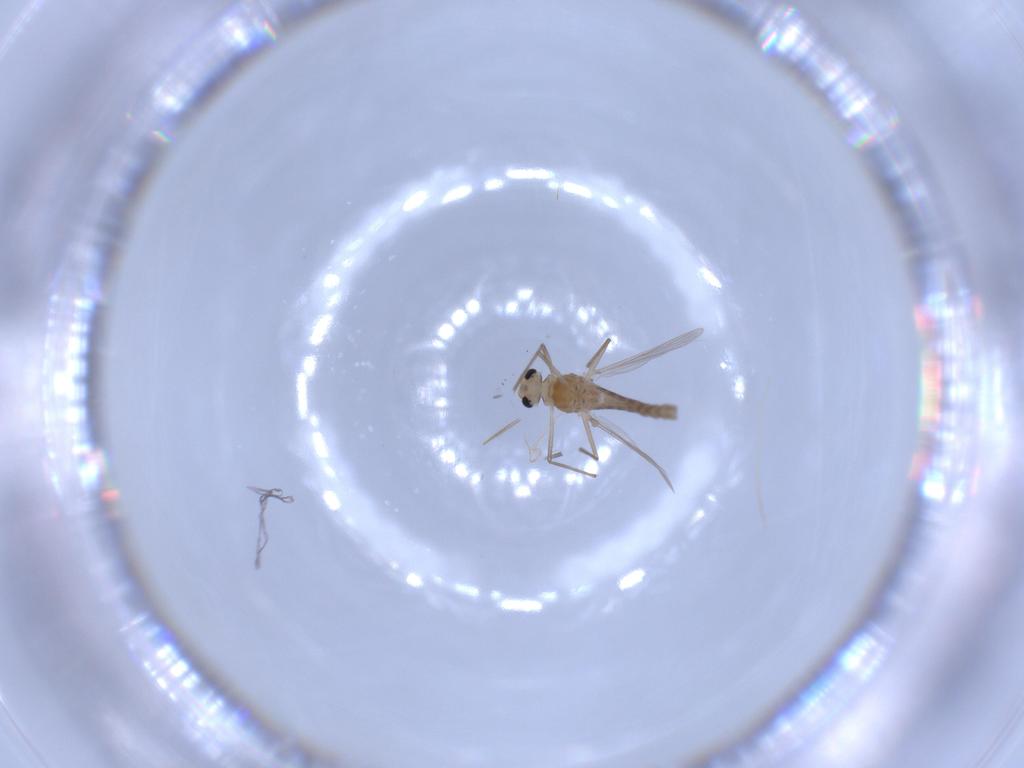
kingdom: Animalia
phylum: Arthropoda
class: Insecta
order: Diptera
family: Chironomidae
